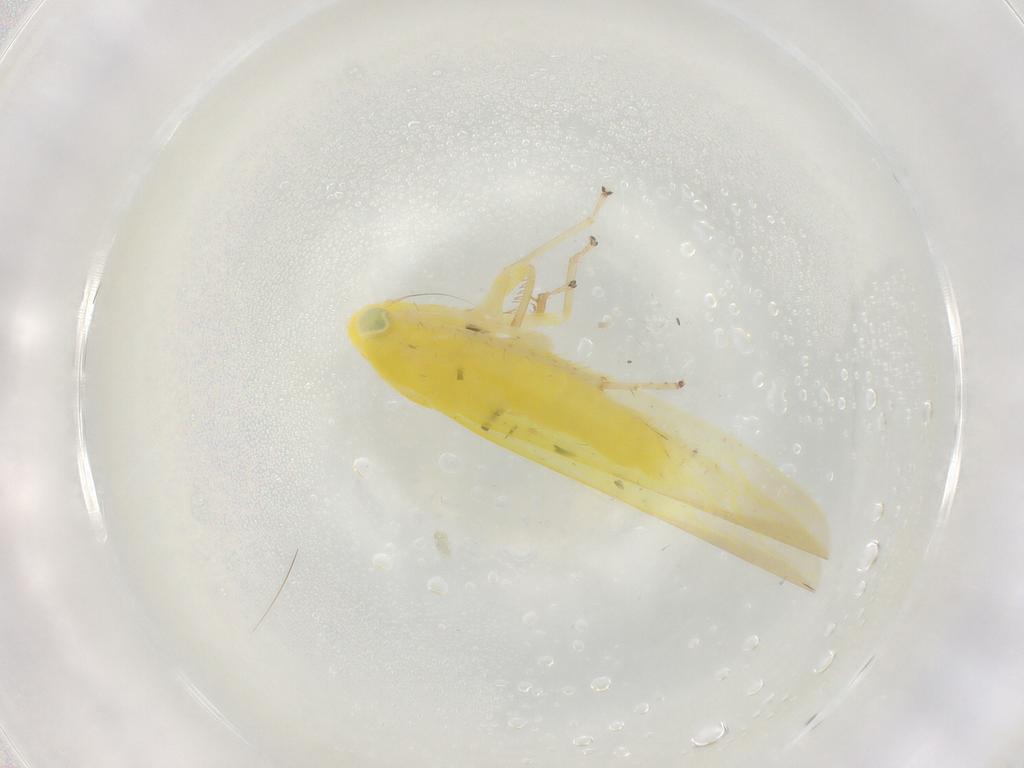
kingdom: Animalia
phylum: Arthropoda
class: Insecta
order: Hemiptera
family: Cicadellidae
